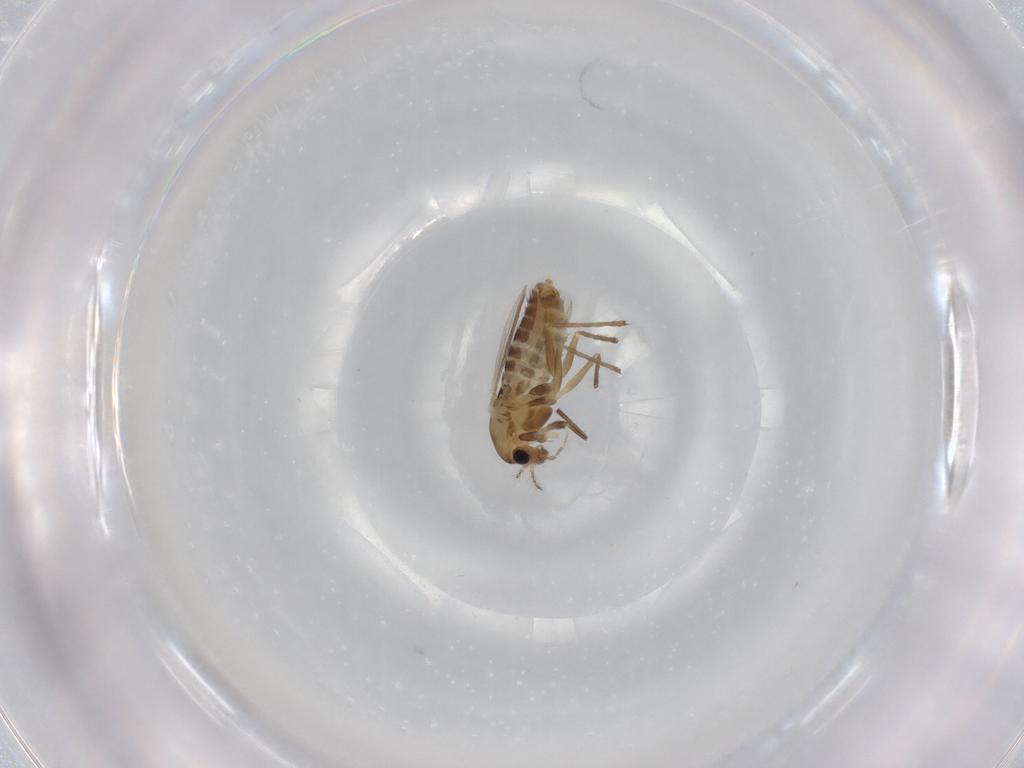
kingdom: Animalia
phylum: Arthropoda
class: Insecta
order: Diptera
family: Chironomidae
